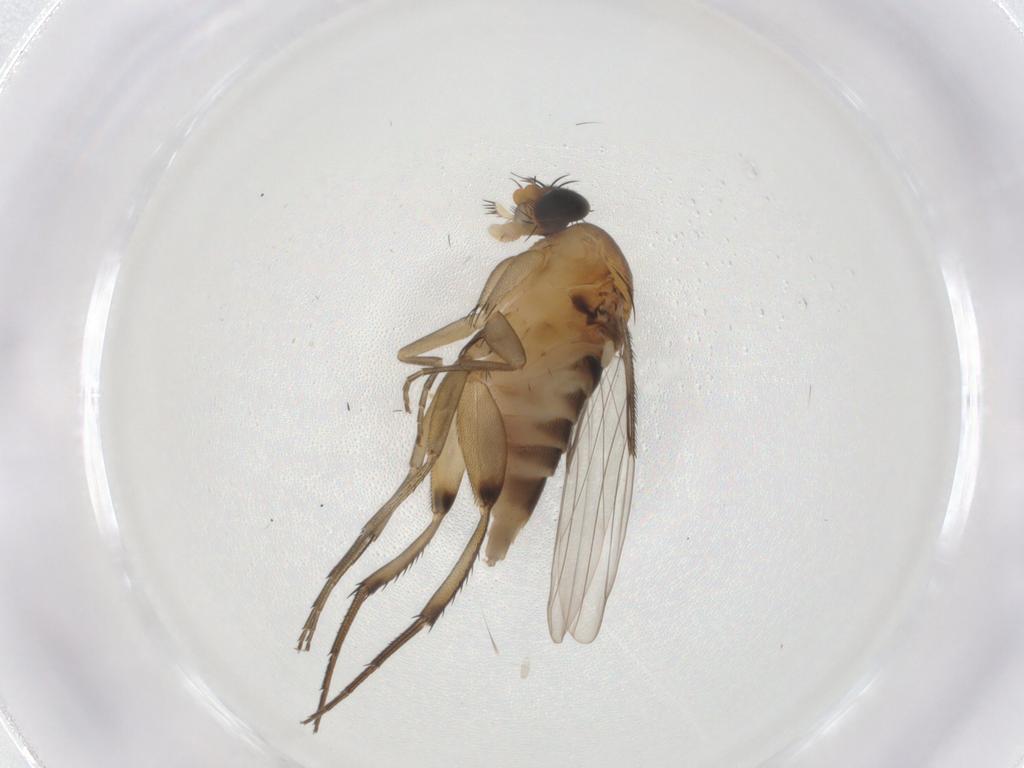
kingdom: Animalia
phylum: Arthropoda
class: Insecta
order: Diptera
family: Phoridae
